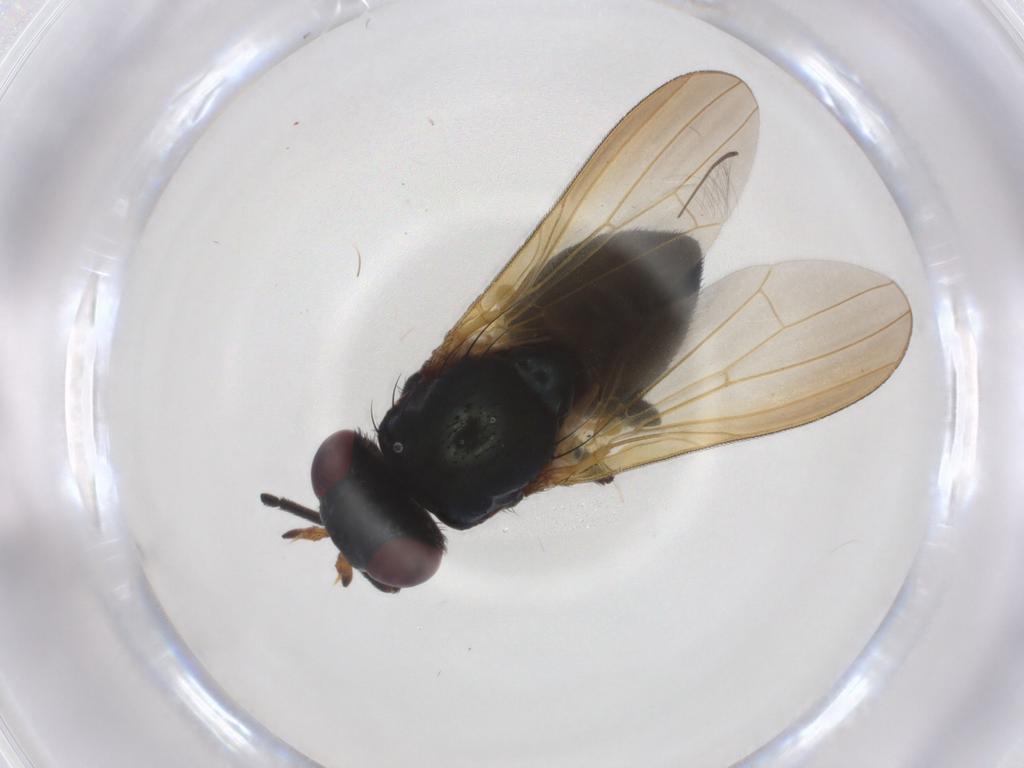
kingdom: Animalia
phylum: Arthropoda
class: Insecta
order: Diptera
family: Lauxaniidae
